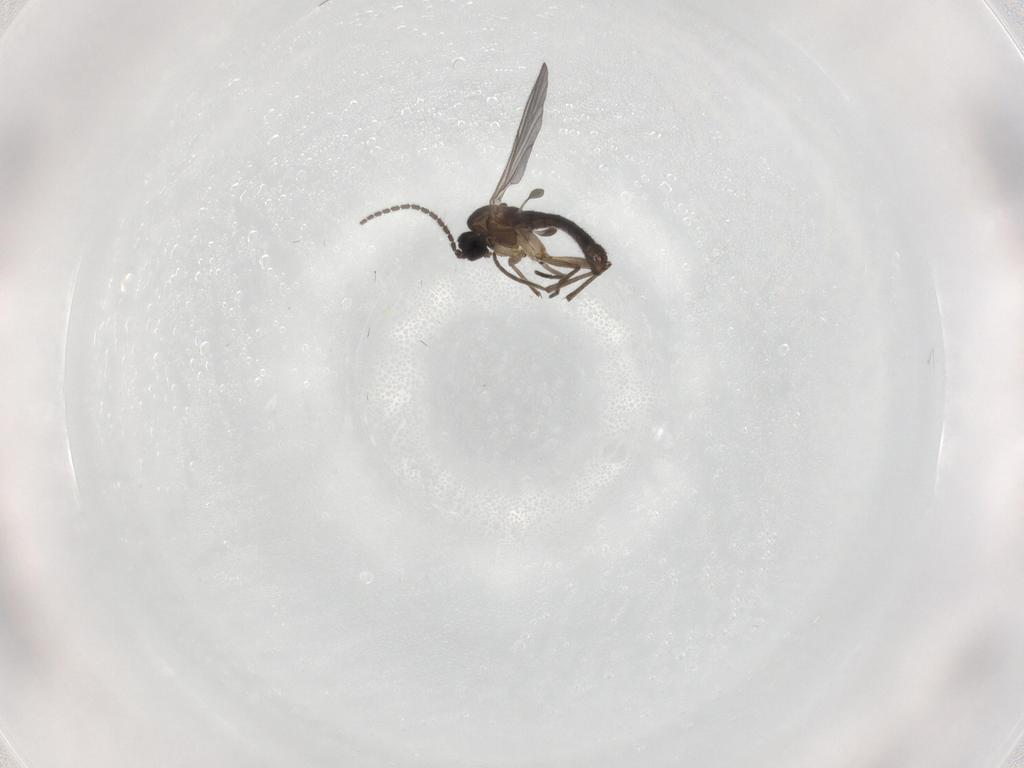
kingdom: Animalia
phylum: Arthropoda
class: Insecta
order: Diptera
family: Sciaridae
